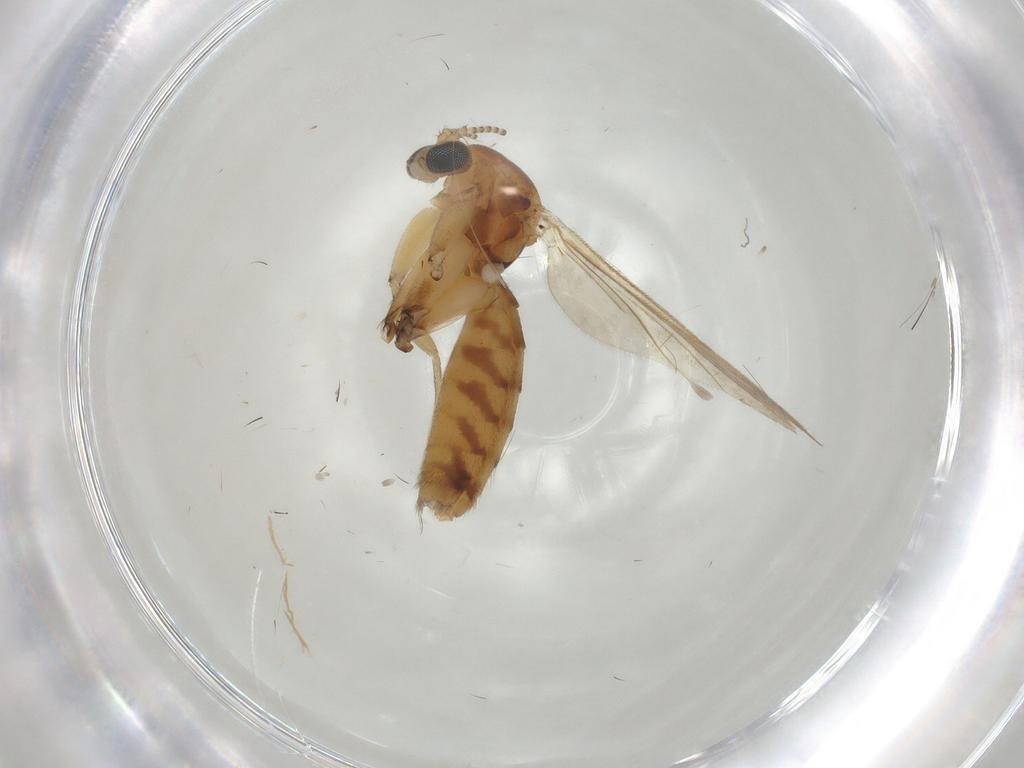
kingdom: Animalia
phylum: Arthropoda
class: Insecta
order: Diptera
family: Sphaeroceridae
